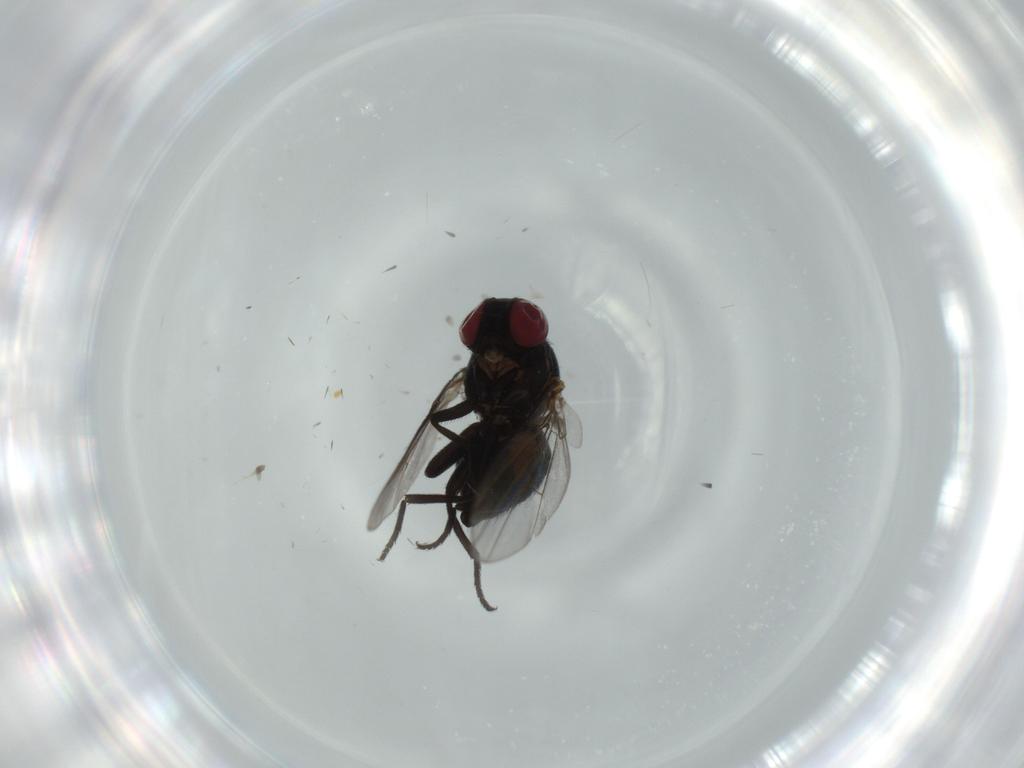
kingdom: Animalia
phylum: Arthropoda
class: Insecta
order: Diptera
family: Agromyzidae
